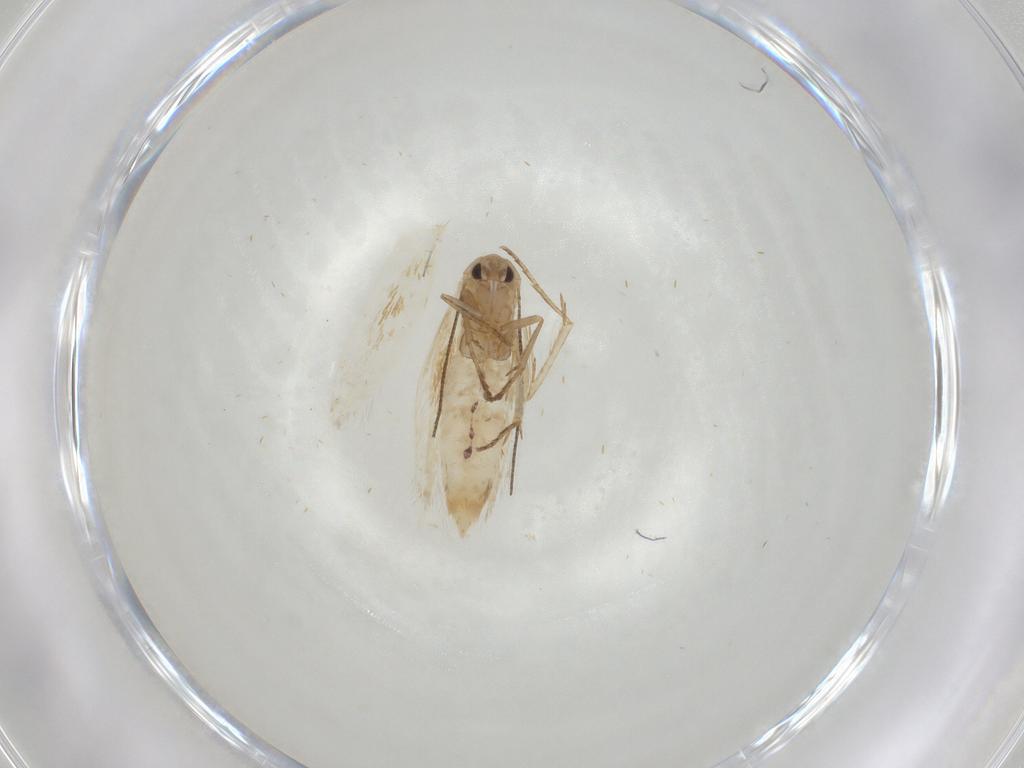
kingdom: Animalia
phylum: Arthropoda
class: Insecta
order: Lepidoptera
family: Bucculatricidae
